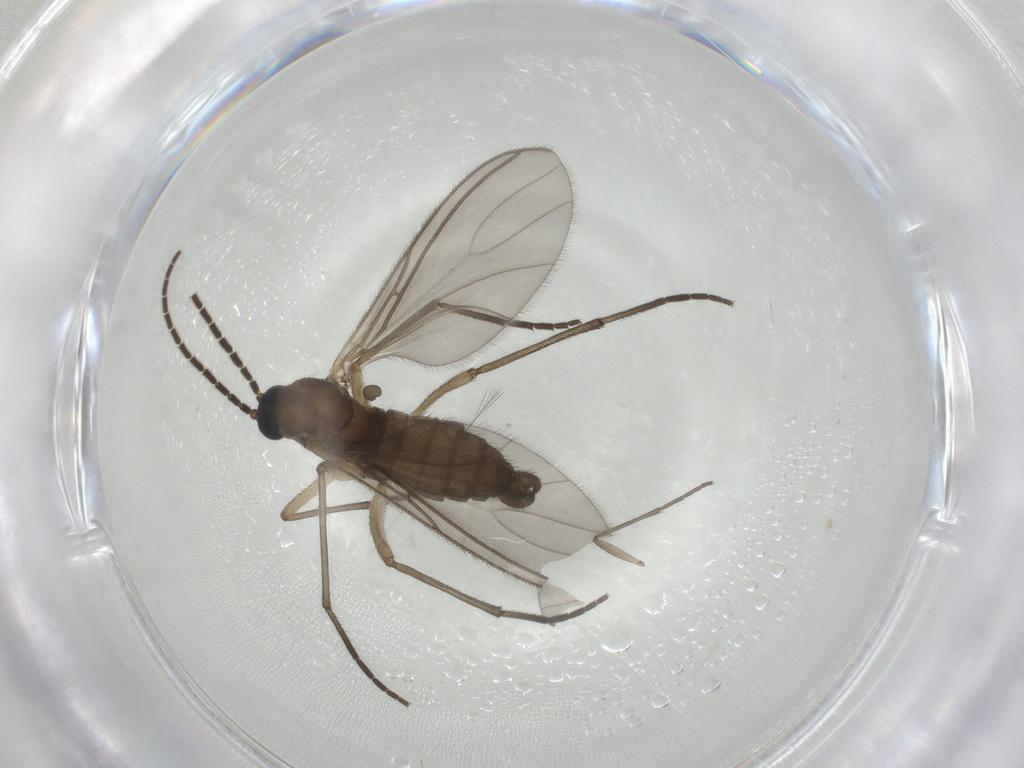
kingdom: Animalia
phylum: Arthropoda
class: Insecta
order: Diptera
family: Sciaridae
